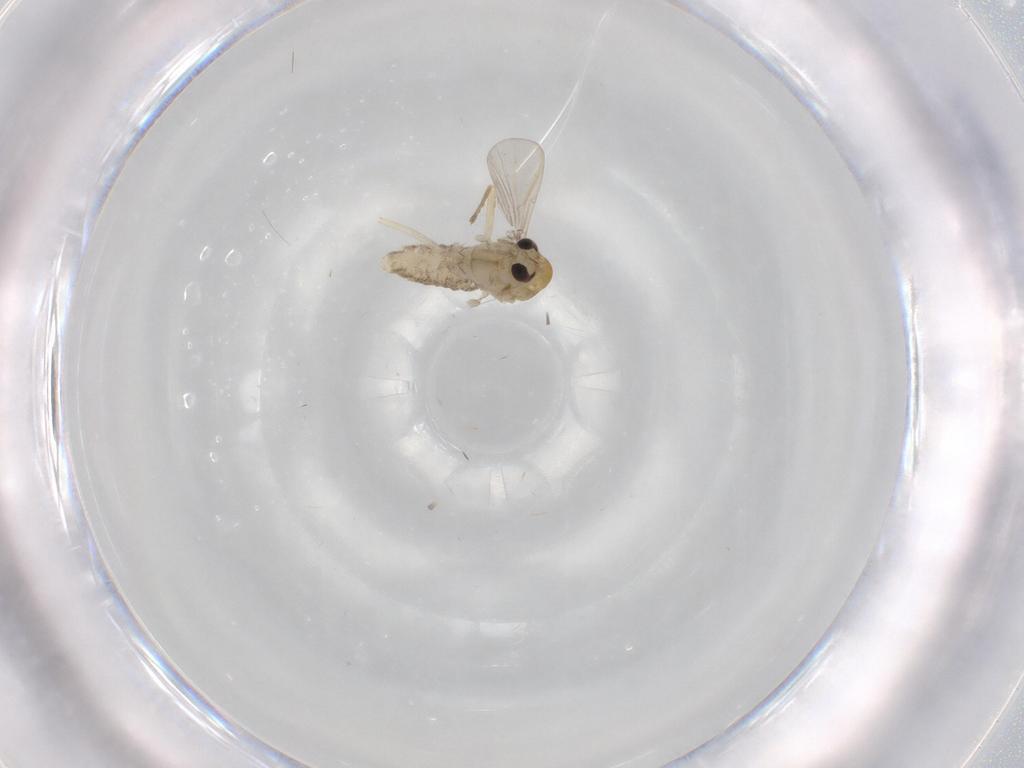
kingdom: Animalia
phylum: Arthropoda
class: Insecta
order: Diptera
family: Chironomidae
